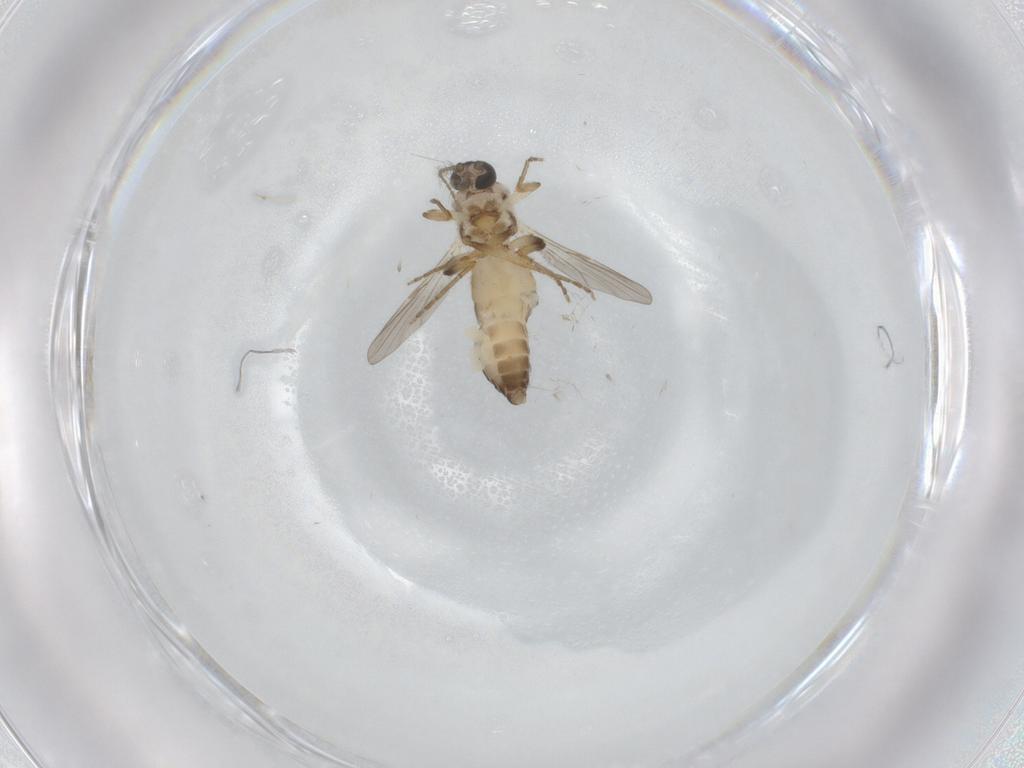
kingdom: Animalia
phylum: Arthropoda
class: Insecta
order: Diptera
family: Ceratopogonidae
